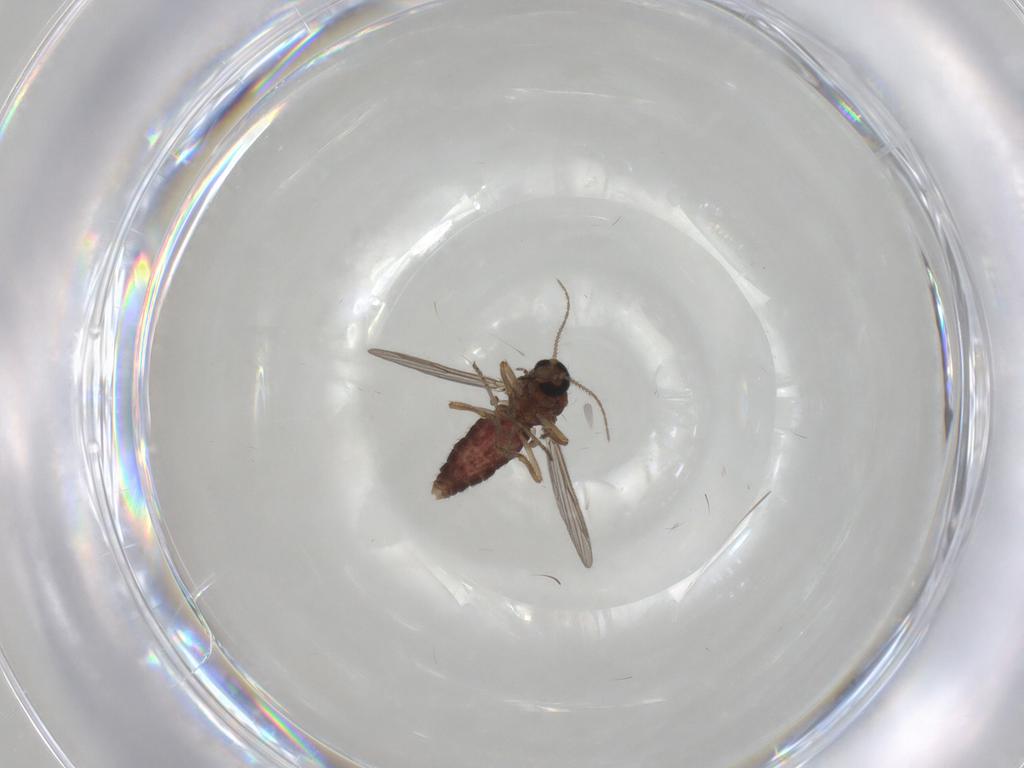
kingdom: Animalia
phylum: Arthropoda
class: Insecta
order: Diptera
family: Ceratopogonidae
